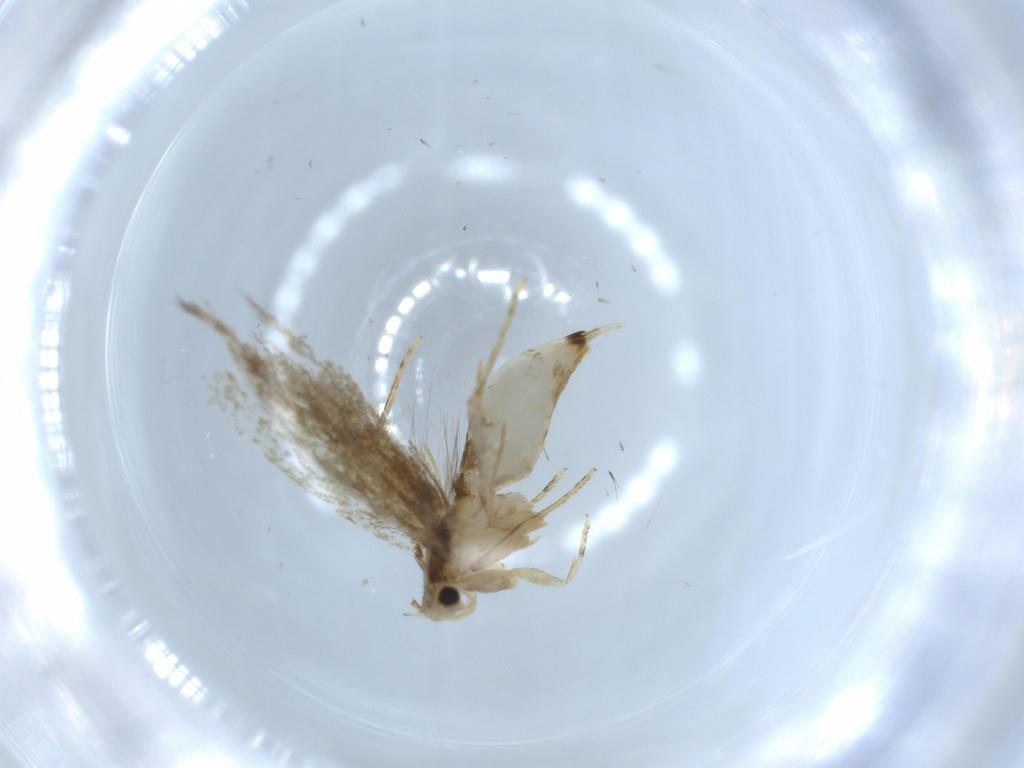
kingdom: Animalia
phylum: Arthropoda
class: Insecta
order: Lepidoptera
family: Tineidae
